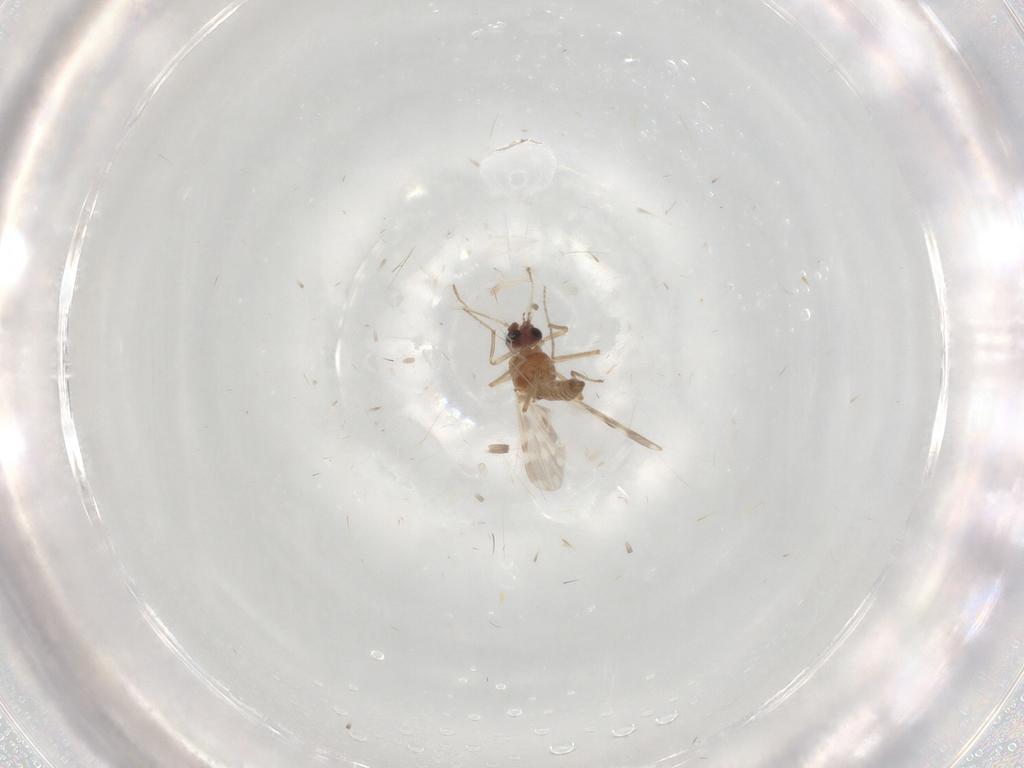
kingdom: Animalia
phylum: Arthropoda
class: Insecta
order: Diptera
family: Ceratopogonidae
